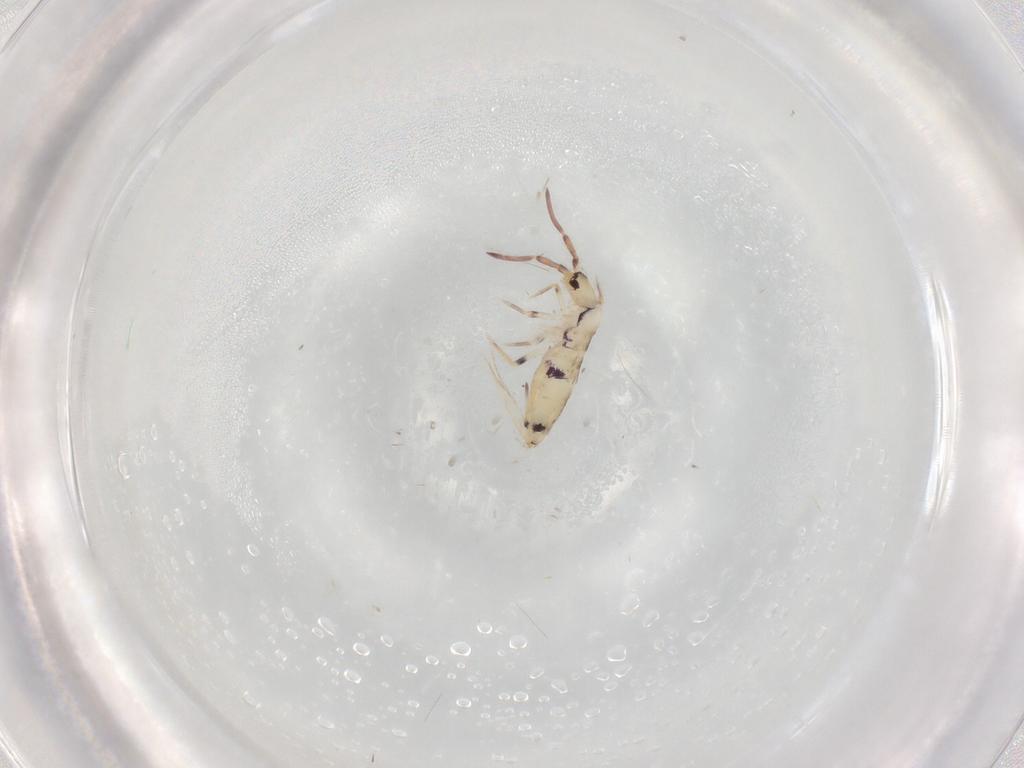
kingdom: Animalia
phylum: Arthropoda
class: Collembola
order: Entomobryomorpha
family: Entomobryidae
